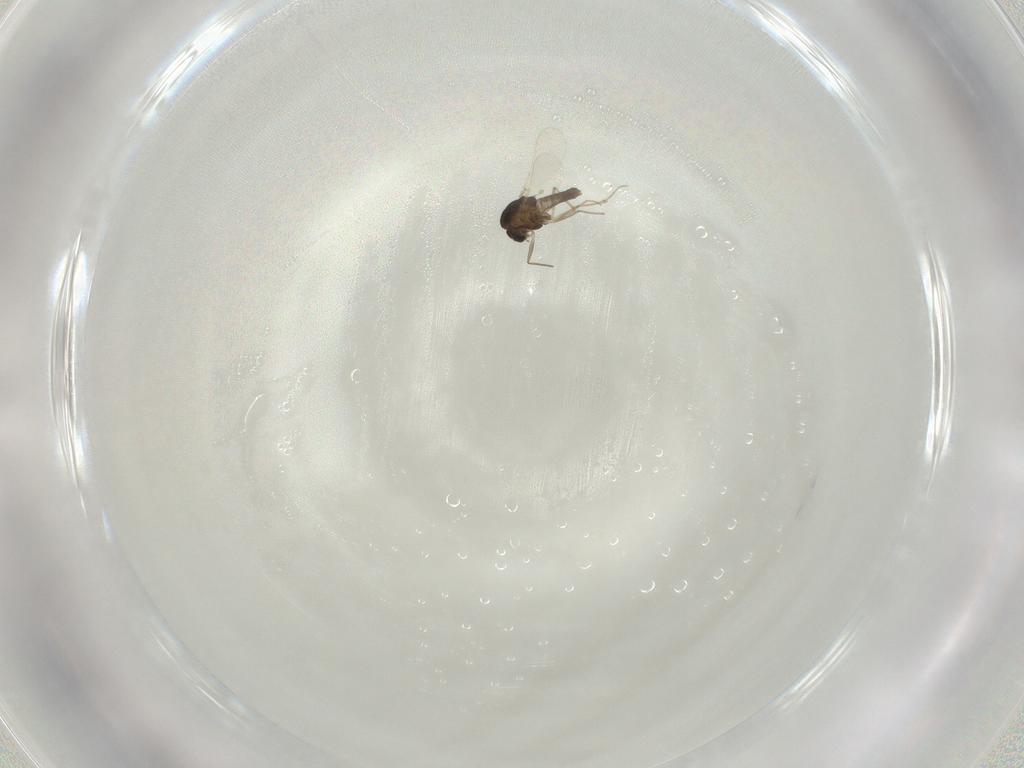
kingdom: Animalia
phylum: Arthropoda
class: Insecta
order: Diptera
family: Chironomidae
